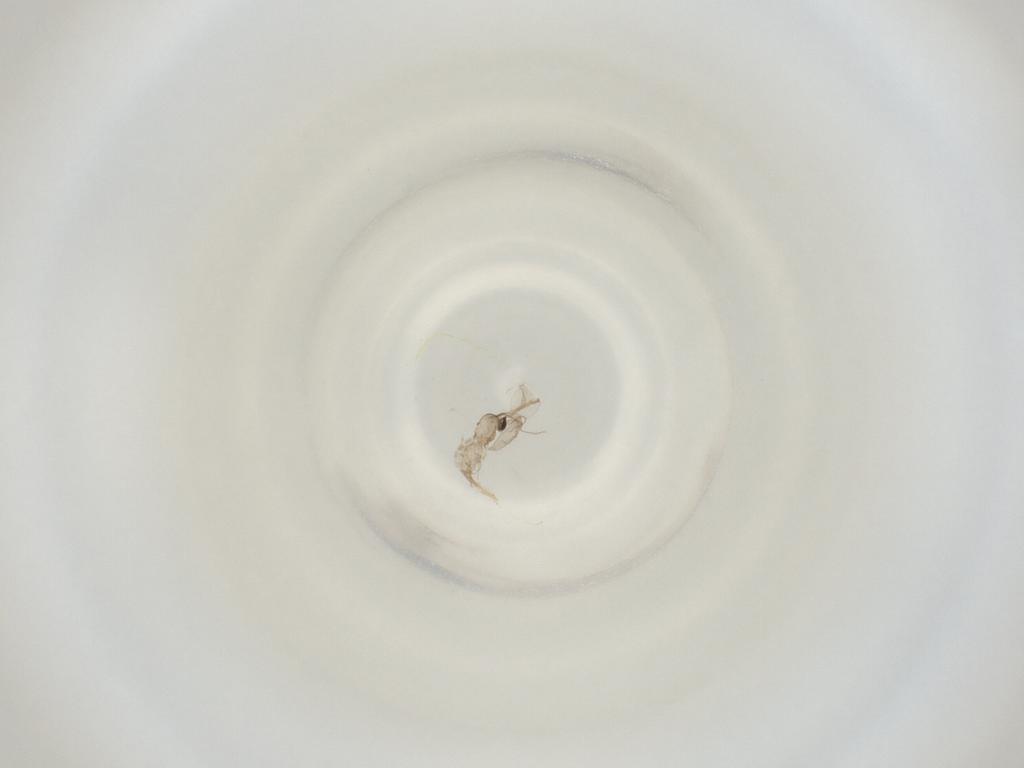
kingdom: Animalia
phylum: Arthropoda
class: Insecta
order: Diptera
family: Cecidomyiidae
